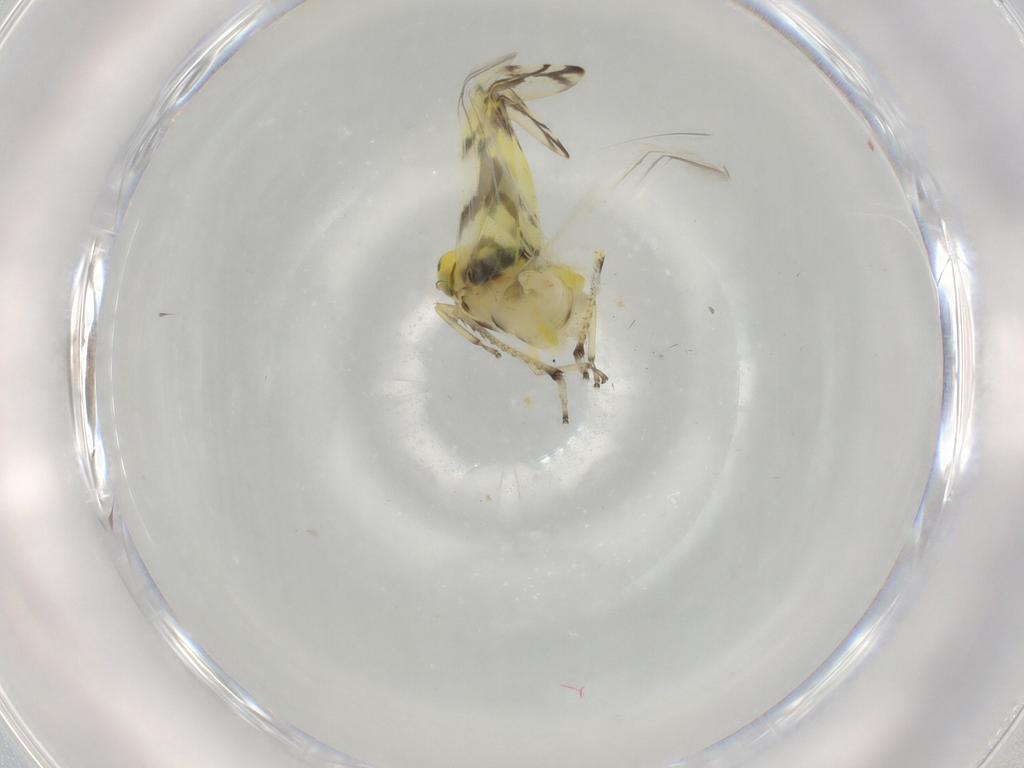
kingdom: Animalia
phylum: Arthropoda
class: Insecta
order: Hemiptera
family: Cicadellidae
